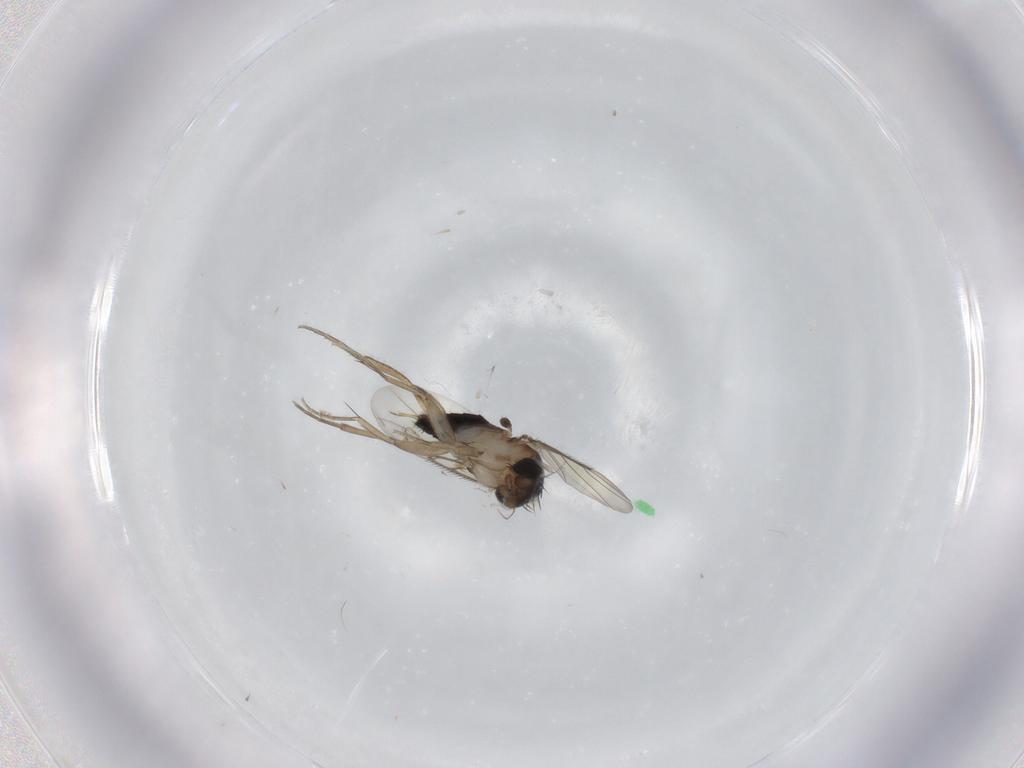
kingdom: Animalia
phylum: Arthropoda
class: Insecta
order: Diptera
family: Phoridae
